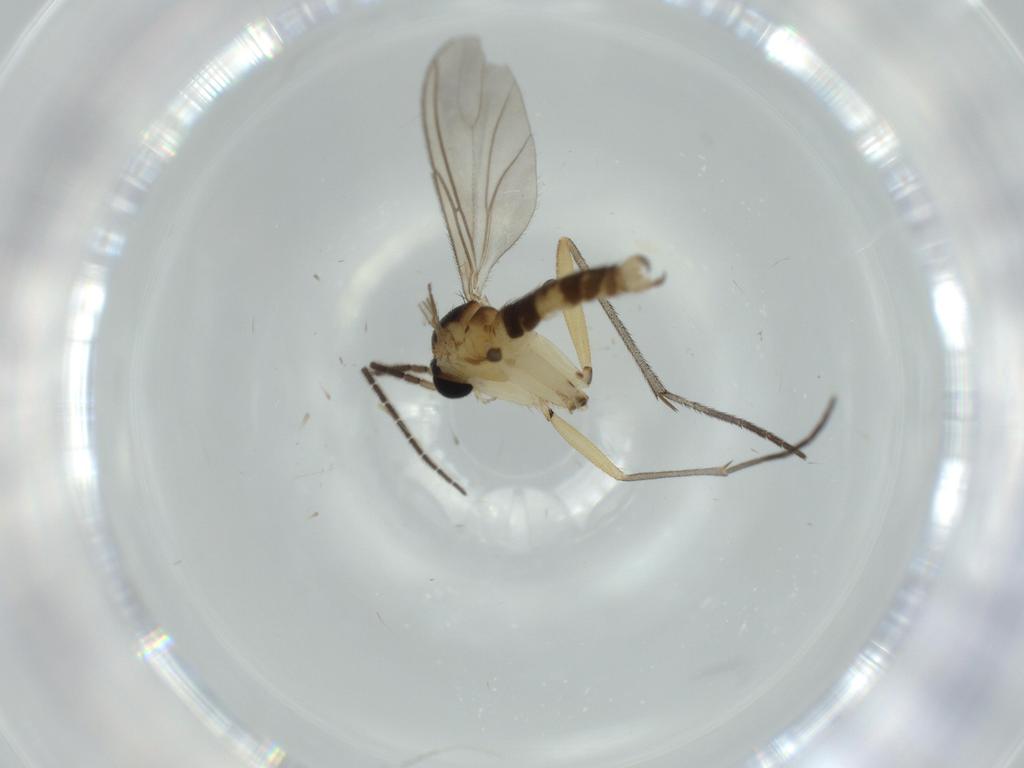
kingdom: Animalia
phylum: Arthropoda
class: Insecta
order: Diptera
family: Sciaridae
